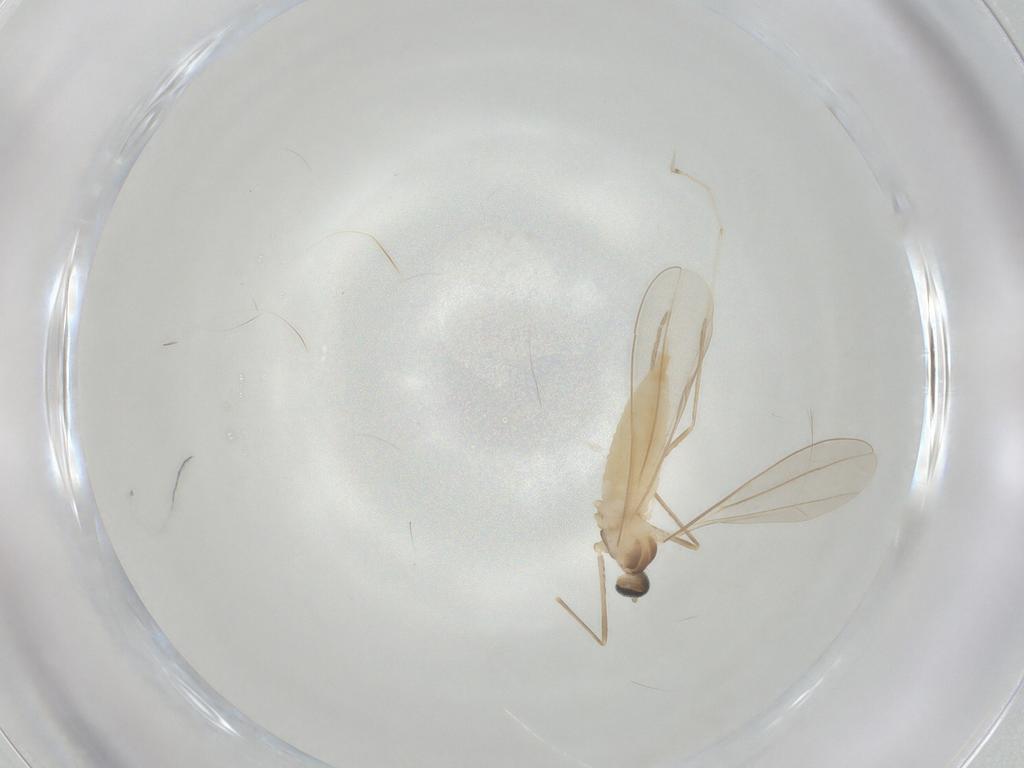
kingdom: Animalia
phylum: Arthropoda
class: Insecta
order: Diptera
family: Cecidomyiidae
